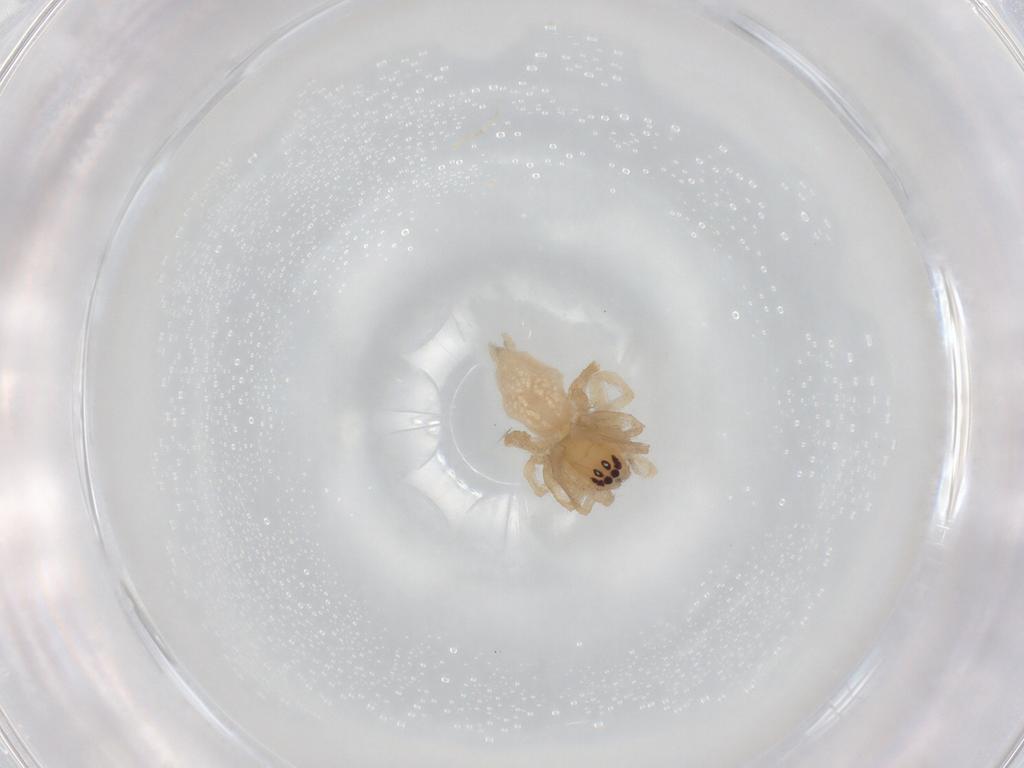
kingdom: Animalia
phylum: Arthropoda
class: Arachnida
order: Araneae
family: Cheiracanthiidae
